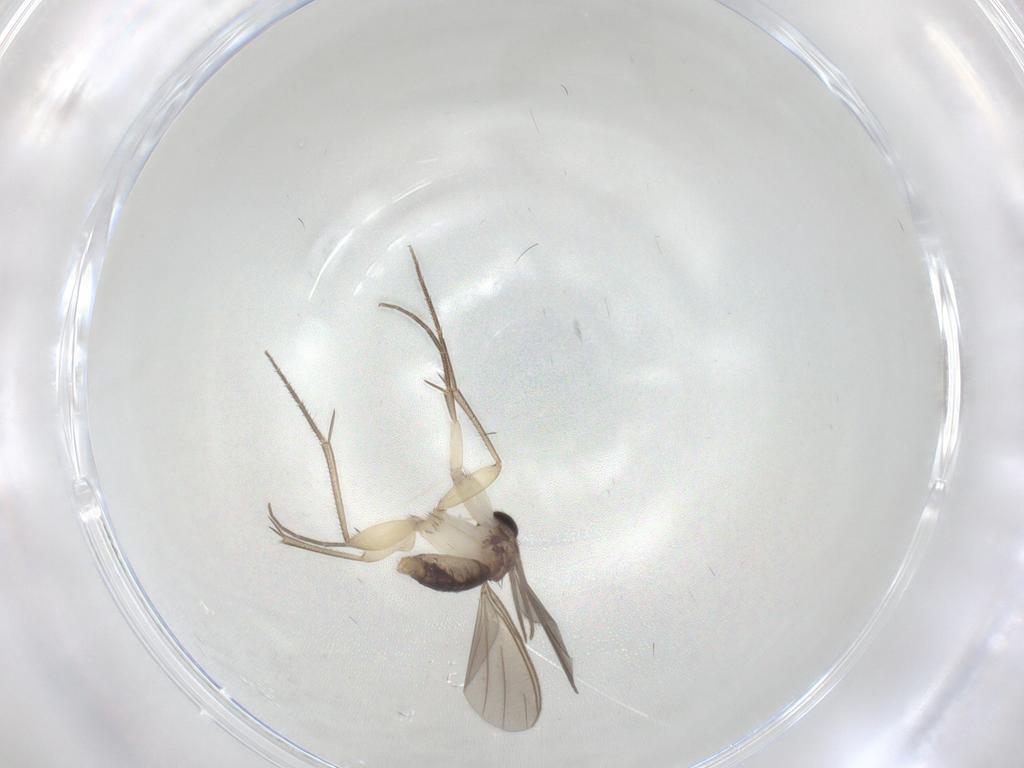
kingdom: Animalia
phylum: Arthropoda
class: Insecta
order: Diptera
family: Mycetophilidae
